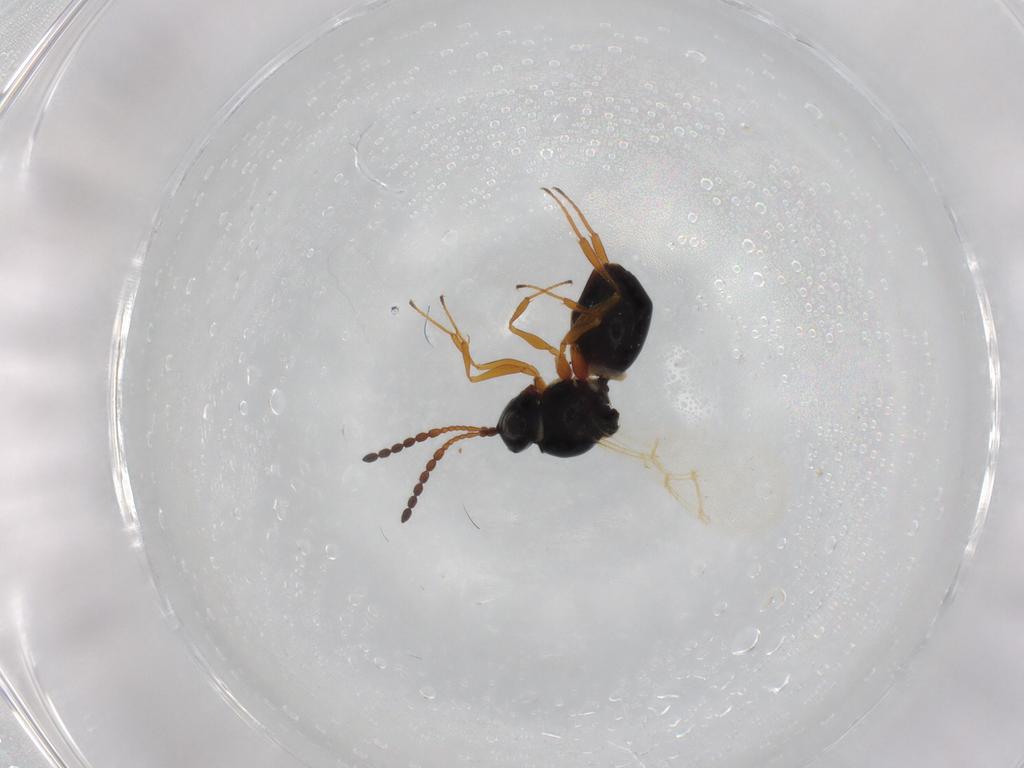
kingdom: Animalia
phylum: Arthropoda
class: Insecta
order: Hymenoptera
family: Figitidae
